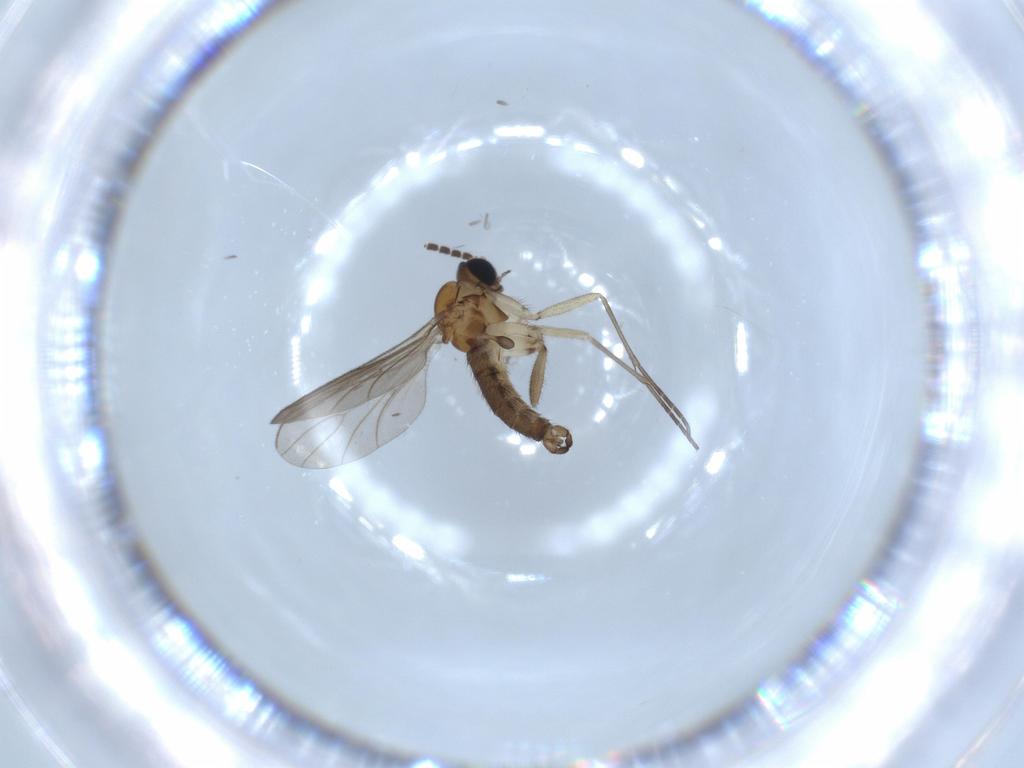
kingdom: Animalia
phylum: Arthropoda
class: Insecta
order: Diptera
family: Sciaridae
